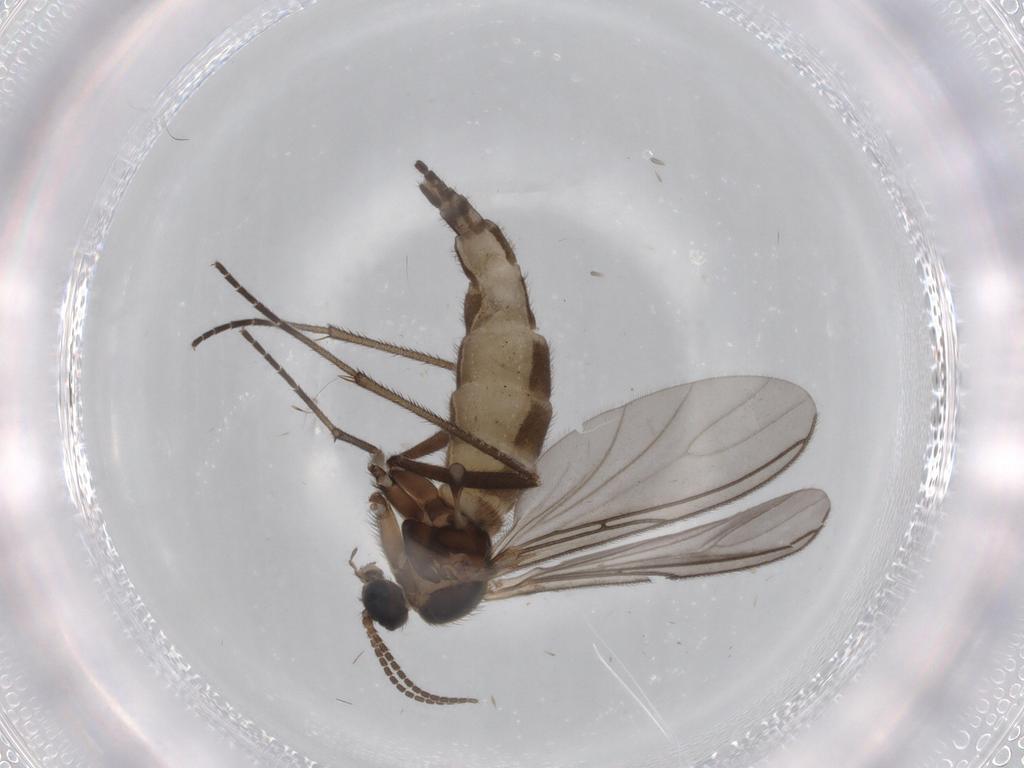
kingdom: Animalia
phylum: Arthropoda
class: Insecta
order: Diptera
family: Sciaridae
